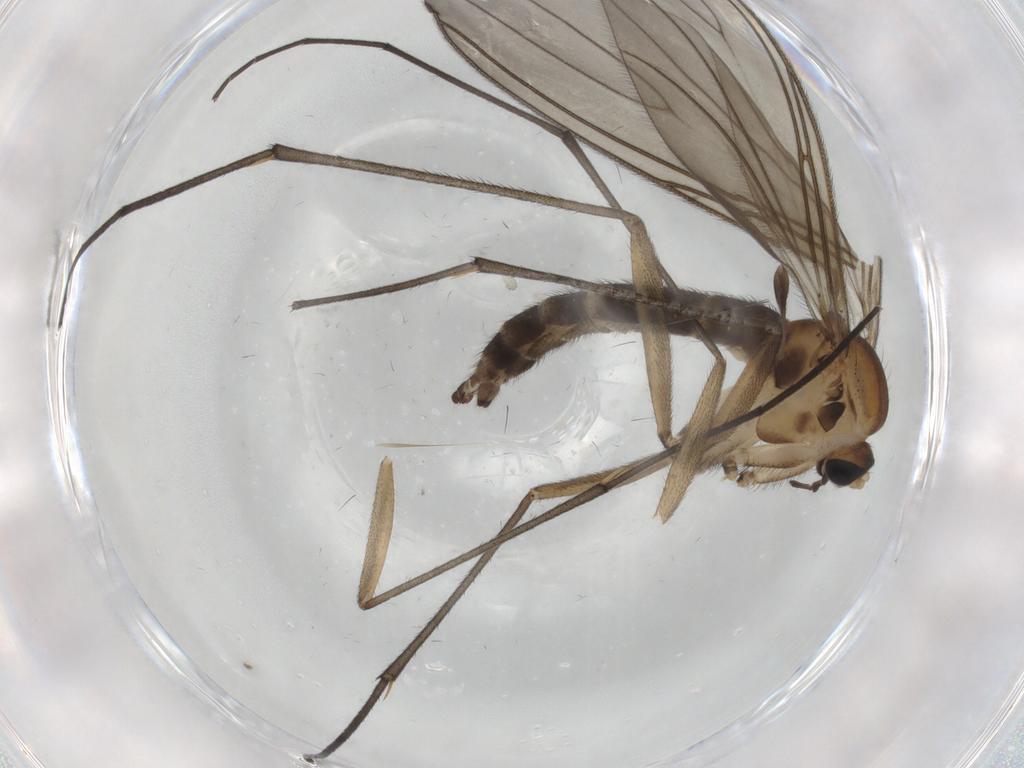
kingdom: Animalia
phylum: Arthropoda
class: Insecta
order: Diptera
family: Sciaridae
